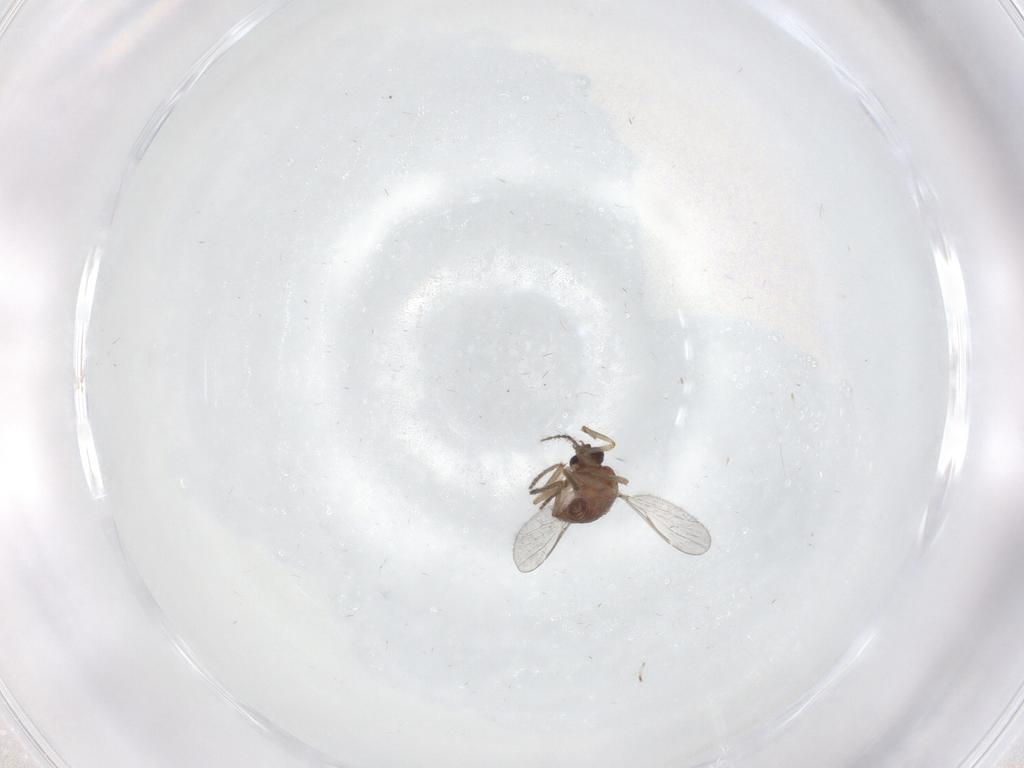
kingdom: Animalia
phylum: Arthropoda
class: Insecta
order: Diptera
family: Ceratopogonidae
